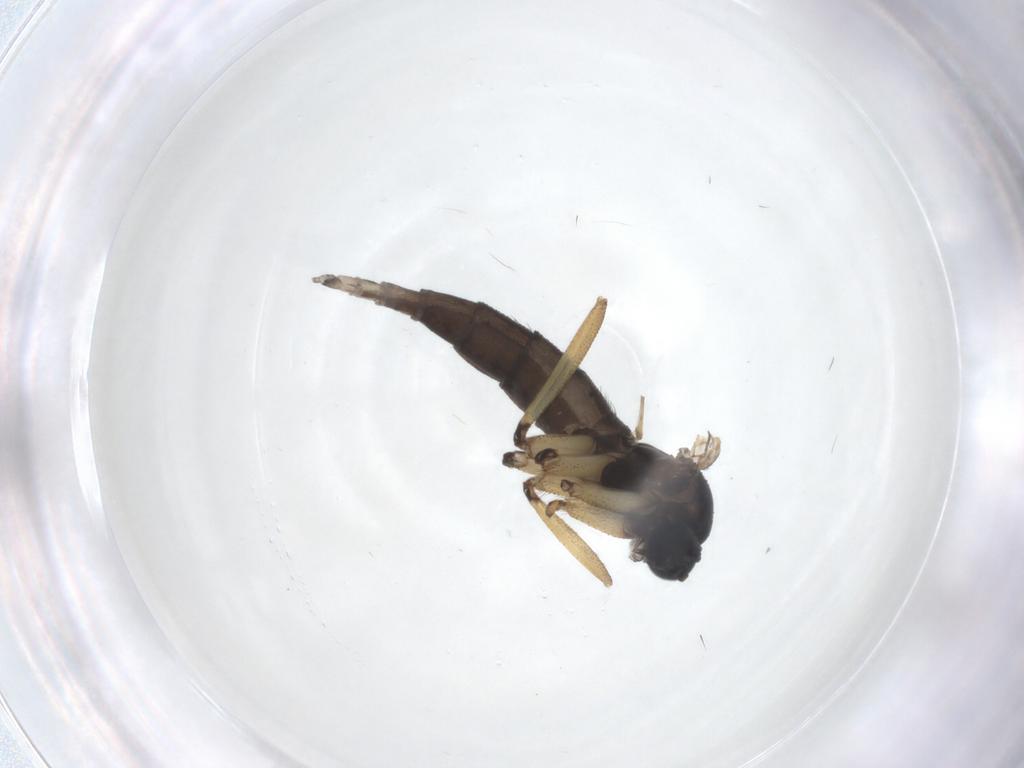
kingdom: Animalia
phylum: Arthropoda
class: Insecta
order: Diptera
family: Sciaridae
